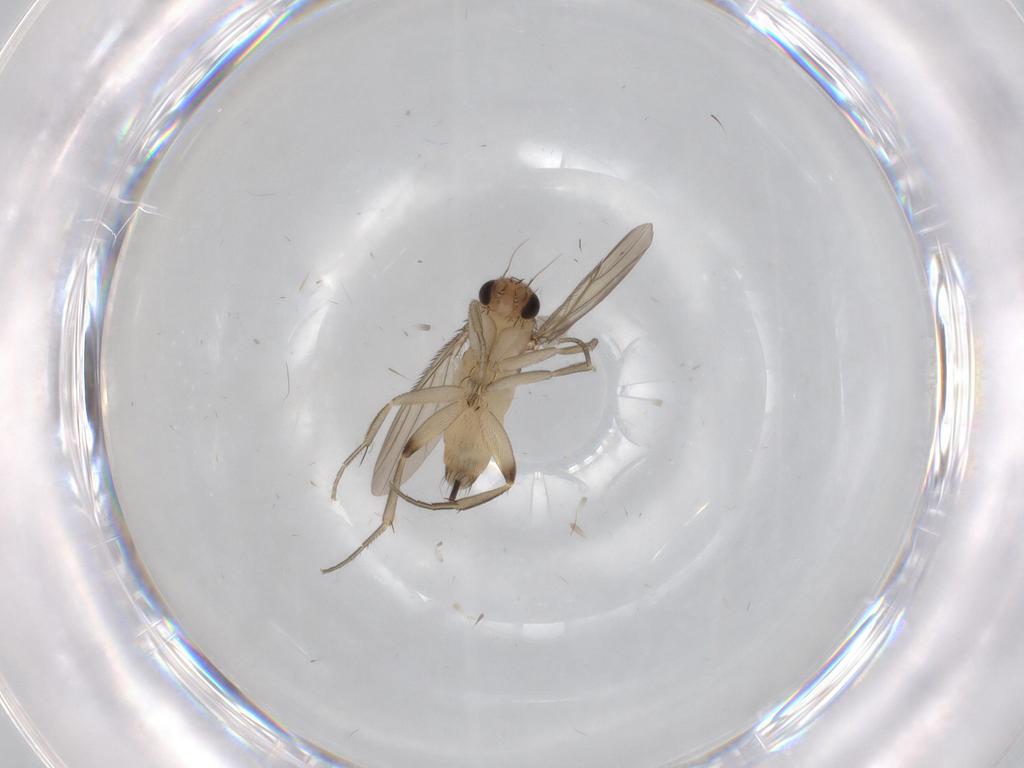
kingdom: Animalia
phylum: Arthropoda
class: Insecta
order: Diptera
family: Phoridae
